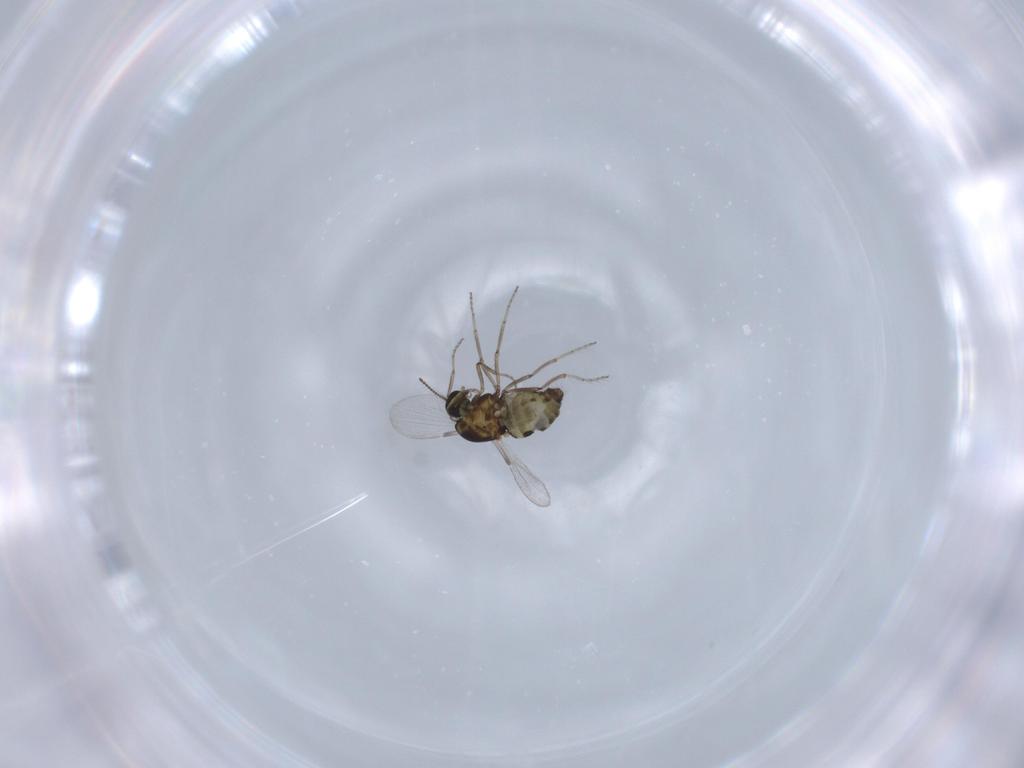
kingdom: Animalia
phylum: Arthropoda
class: Insecta
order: Diptera
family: Ceratopogonidae
